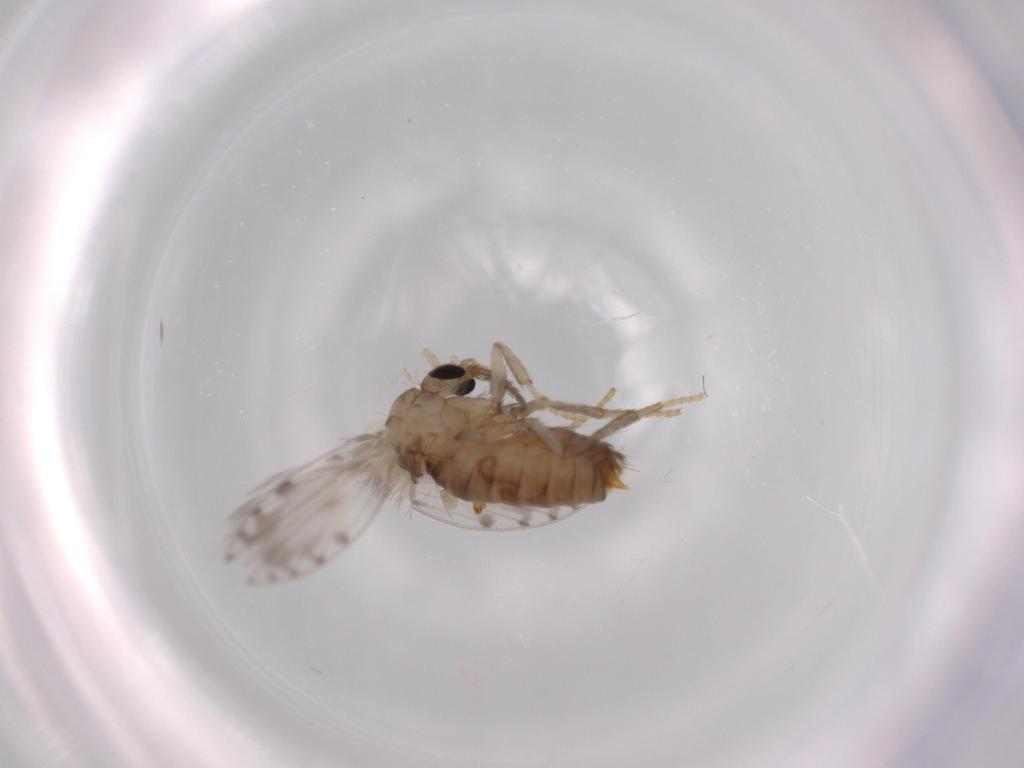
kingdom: Animalia
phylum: Arthropoda
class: Insecta
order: Diptera
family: Psychodidae
